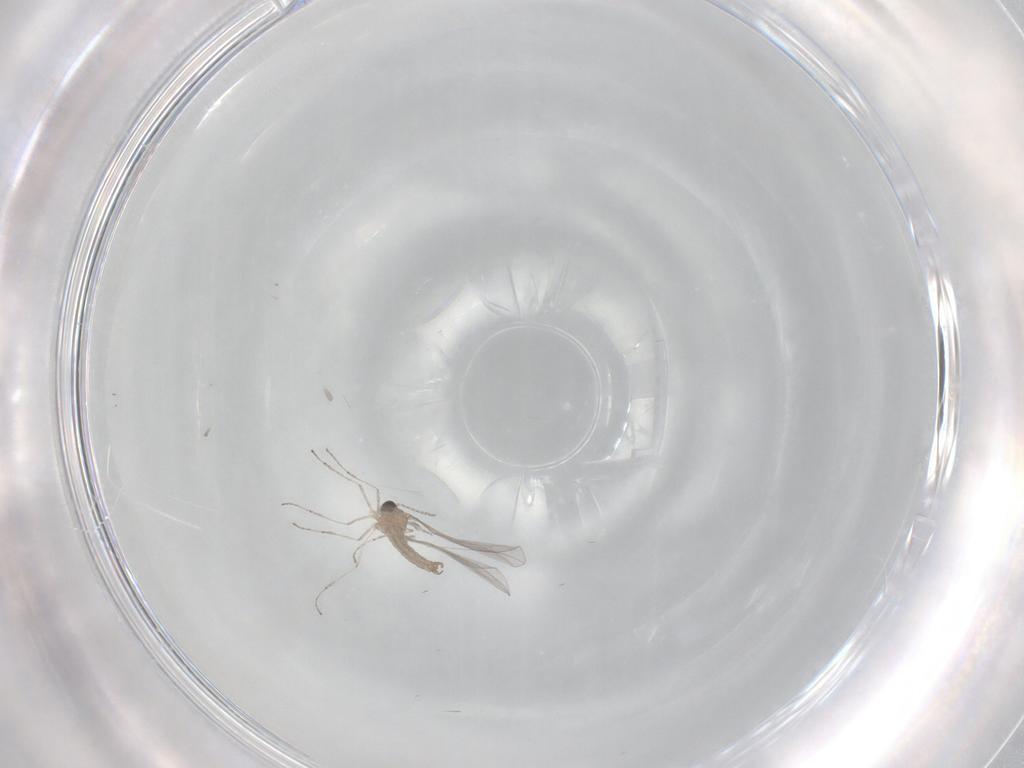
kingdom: Animalia
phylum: Arthropoda
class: Insecta
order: Diptera
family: Cecidomyiidae
